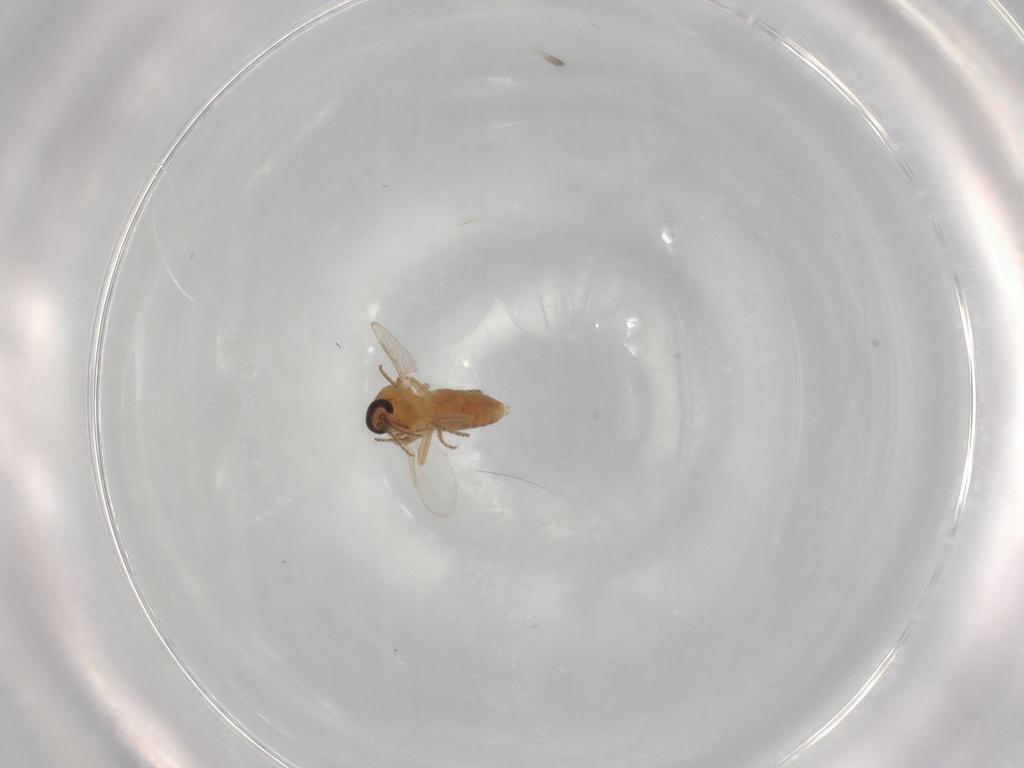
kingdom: Animalia
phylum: Arthropoda
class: Insecta
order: Diptera
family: Ceratopogonidae
